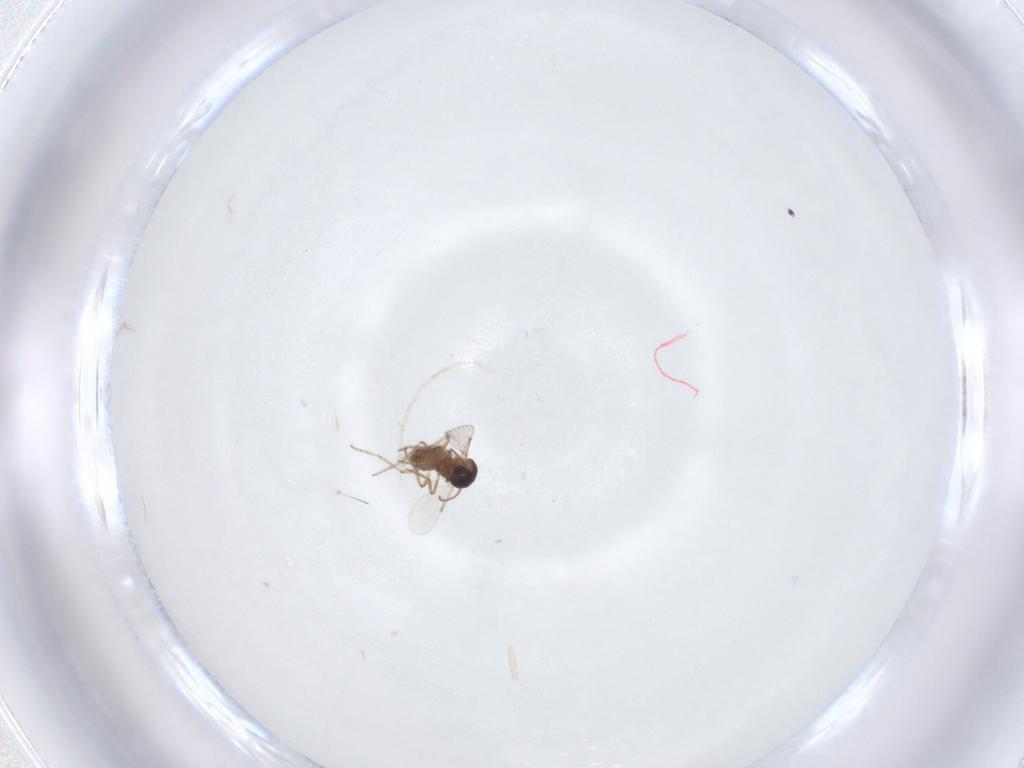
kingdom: Animalia
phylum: Arthropoda
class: Insecta
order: Diptera
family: Ceratopogonidae
